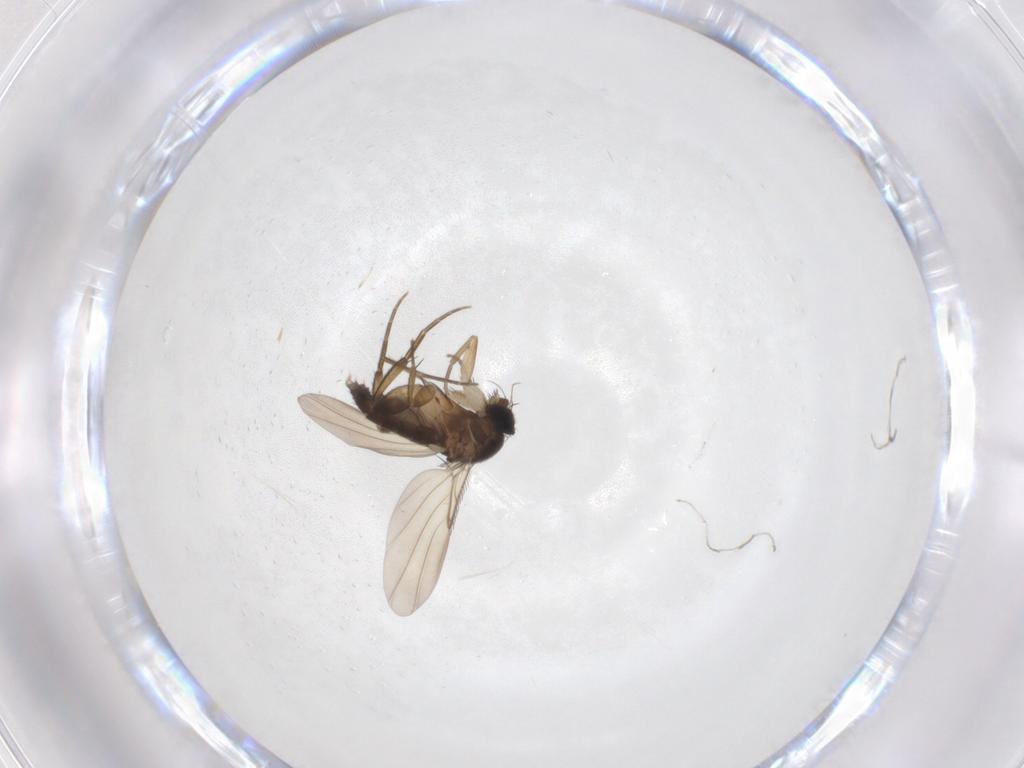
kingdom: Animalia
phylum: Arthropoda
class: Insecta
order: Diptera
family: Phoridae
